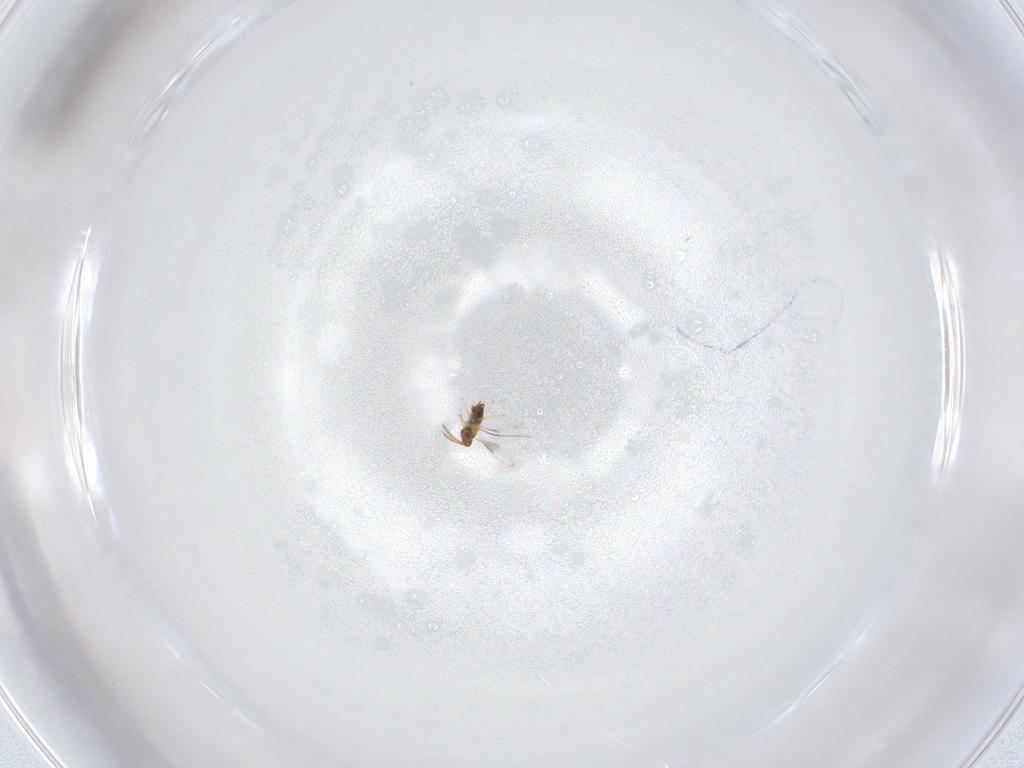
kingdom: Animalia
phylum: Arthropoda
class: Insecta
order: Hymenoptera
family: Aphelinidae
